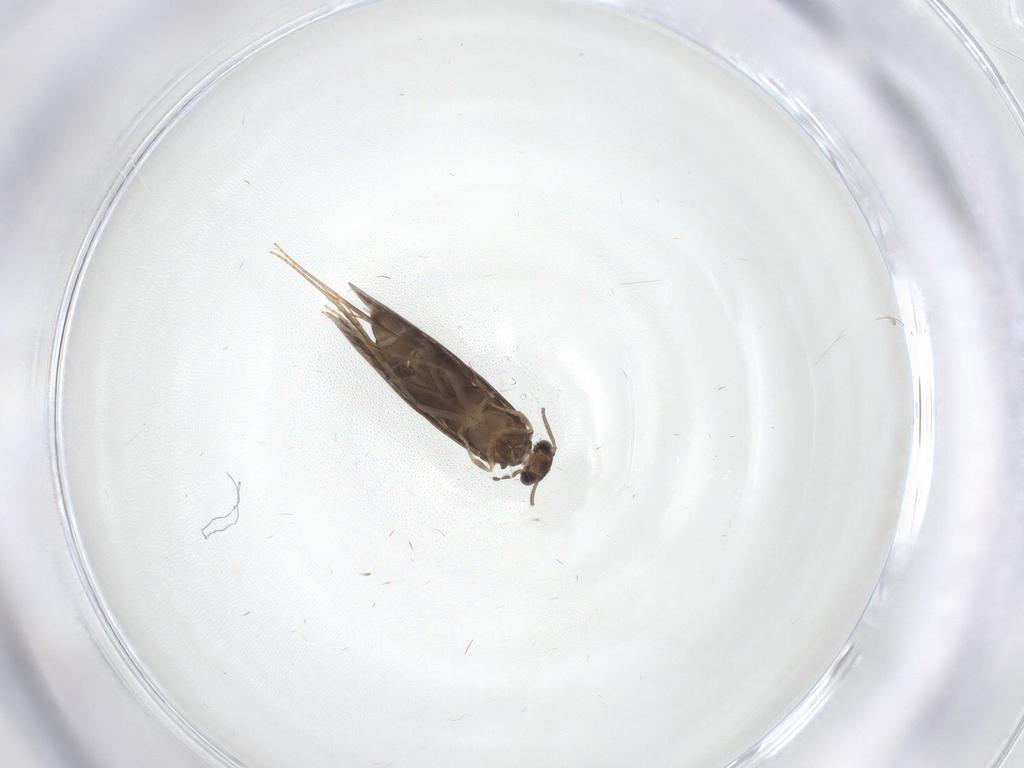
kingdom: Animalia
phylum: Arthropoda
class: Insecta
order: Trichoptera
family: Hydroptilidae
